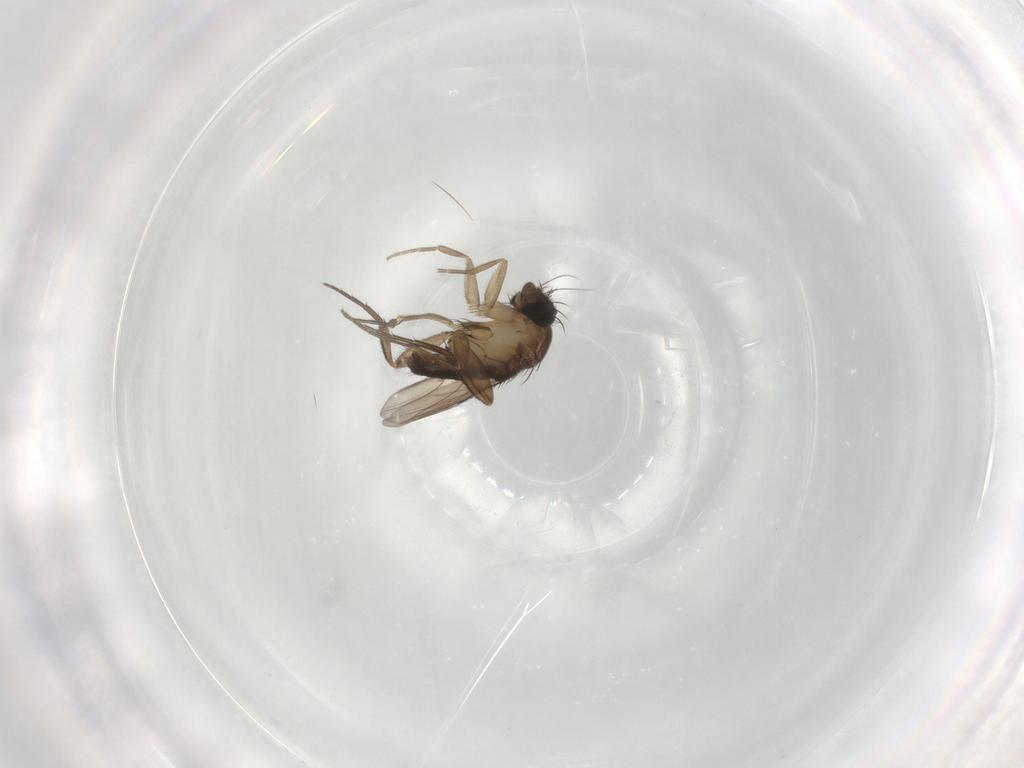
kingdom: Animalia
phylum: Arthropoda
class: Insecta
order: Diptera
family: Phoridae
